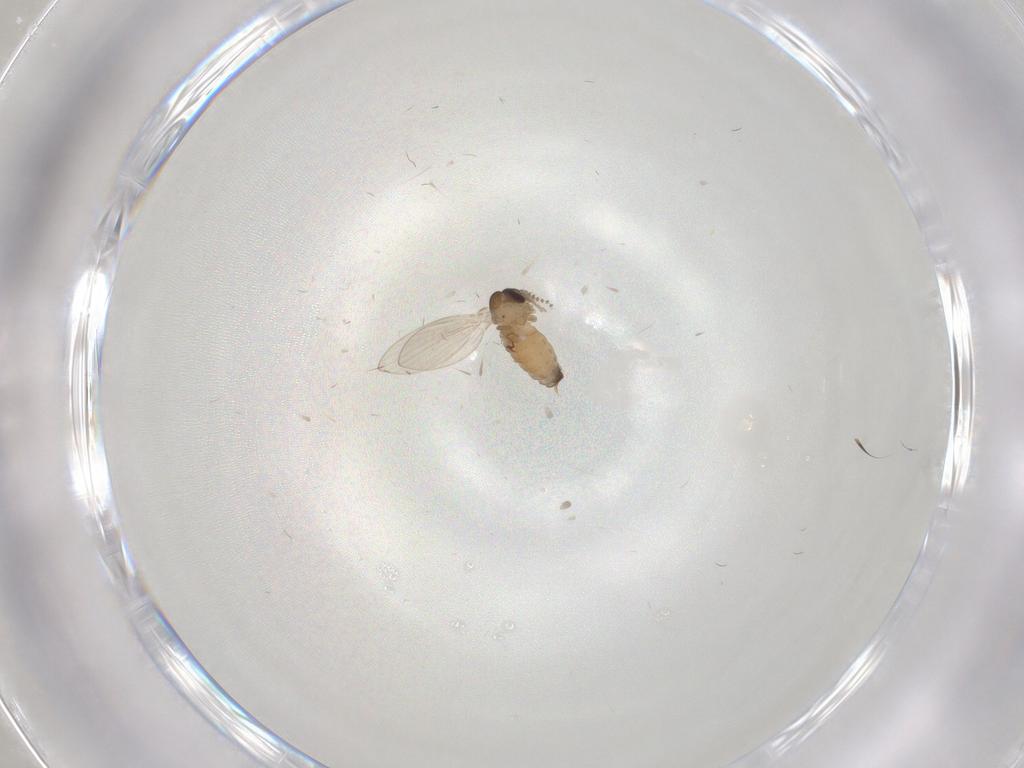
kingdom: Animalia
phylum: Arthropoda
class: Insecta
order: Diptera
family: Psychodidae
